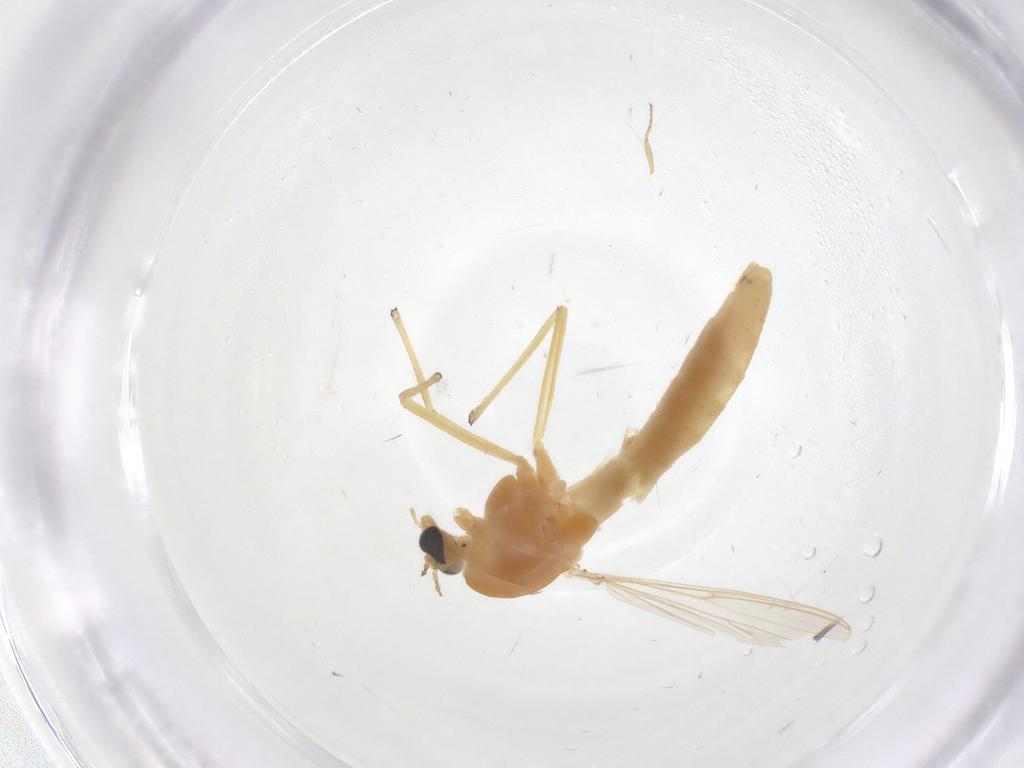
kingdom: Animalia
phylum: Arthropoda
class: Insecta
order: Diptera
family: Chironomidae
